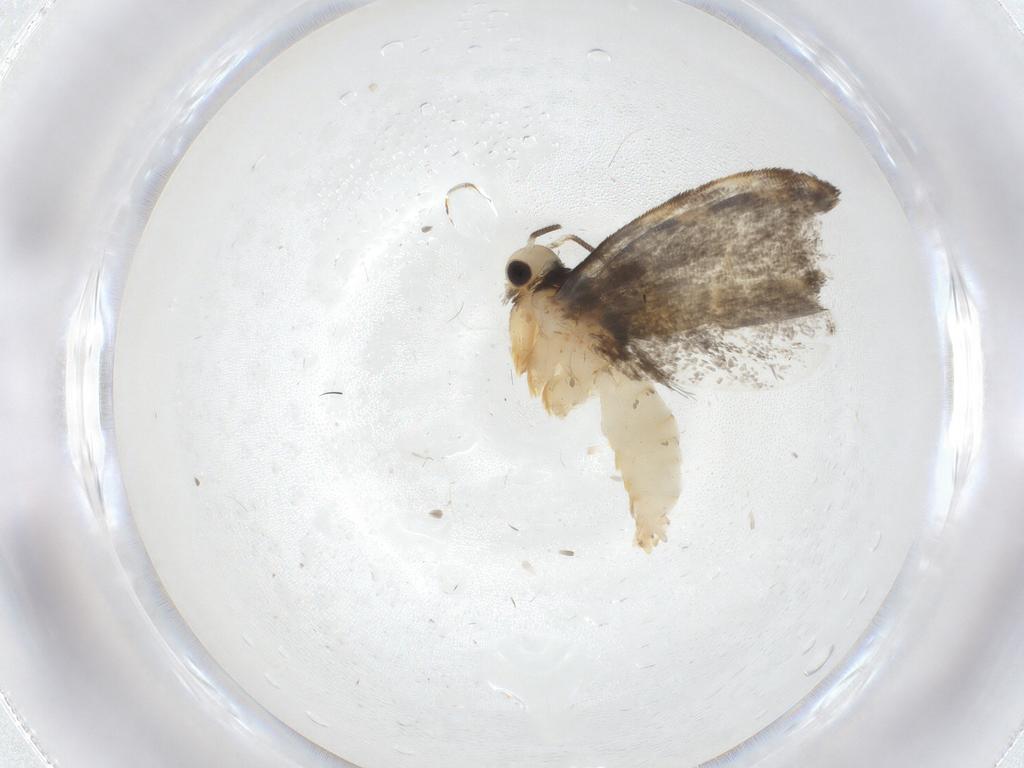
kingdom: Animalia
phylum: Arthropoda
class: Insecta
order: Lepidoptera
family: Tineidae
